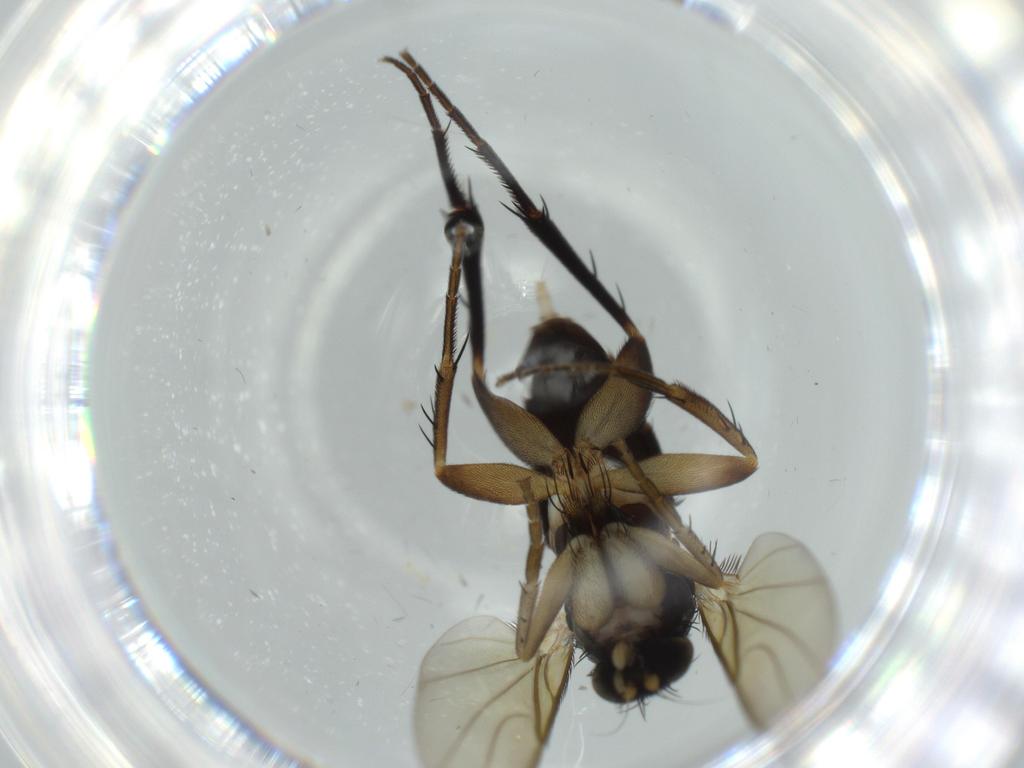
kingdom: Animalia
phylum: Arthropoda
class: Insecta
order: Diptera
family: Phoridae
